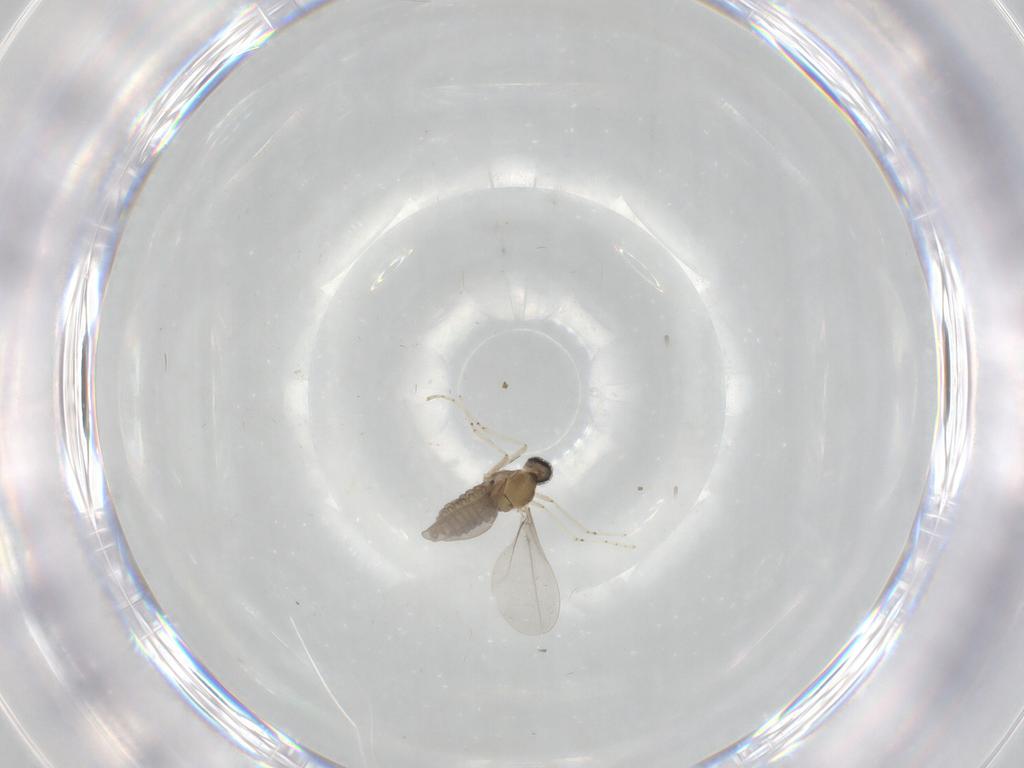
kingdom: Animalia
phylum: Arthropoda
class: Insecta
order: Diptera
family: Cecidomyiidae
